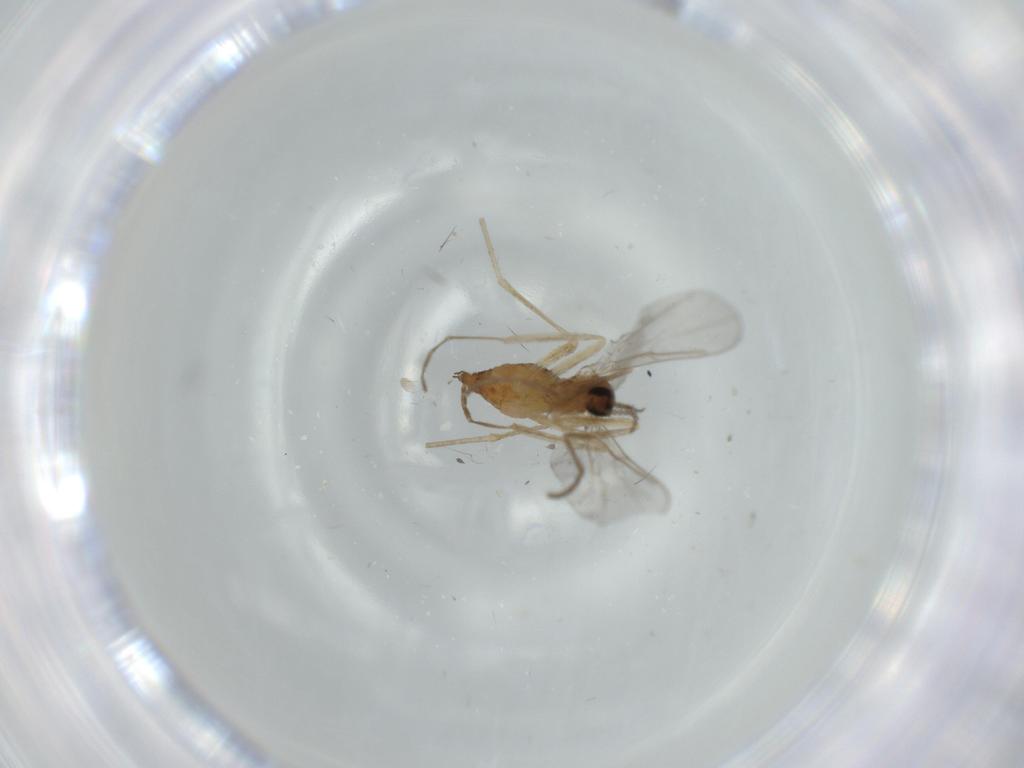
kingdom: Animalia
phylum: Arthropoda
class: Insecta
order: Diptera
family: Cecidomyiidae
